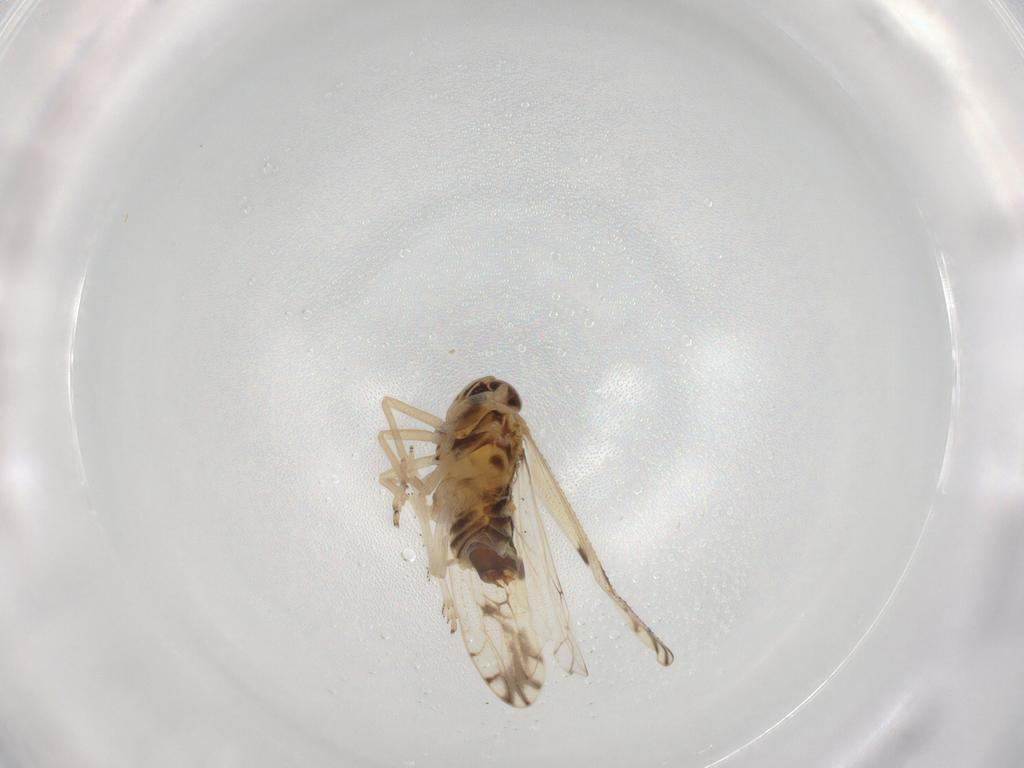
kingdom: Animalia
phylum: Arthropoda
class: Insecta
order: Hemiptera
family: Delphacidae
